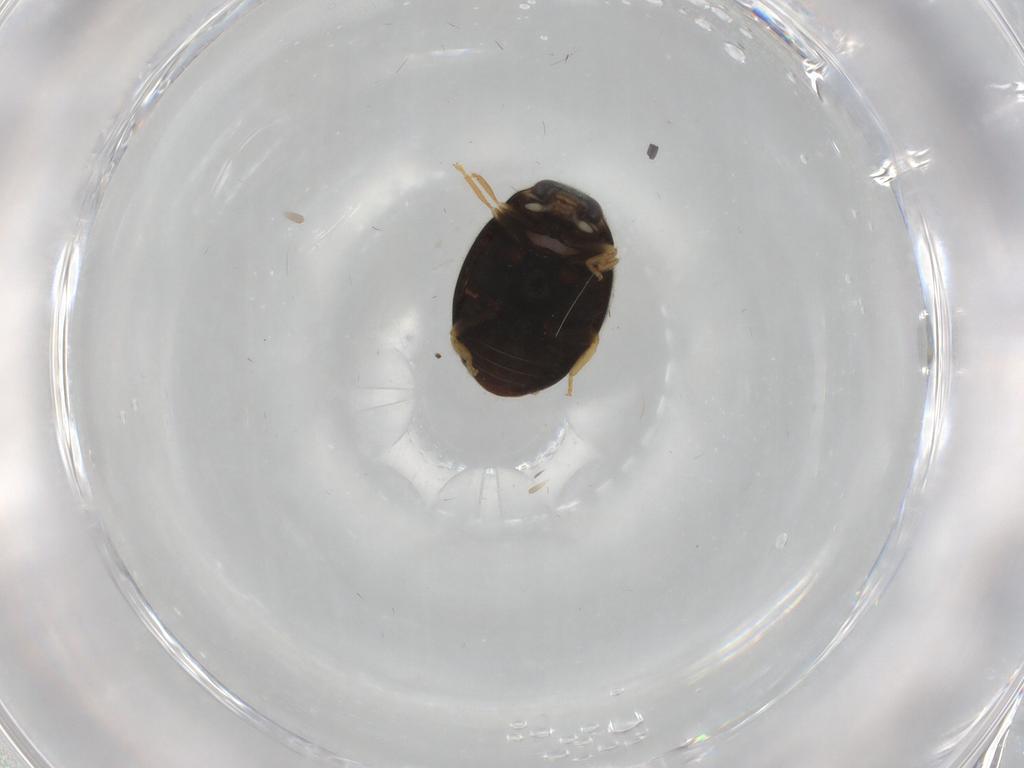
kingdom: Animalia
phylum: Arthropoda
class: Insecta
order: Coleoptera
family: Coccinellidae
